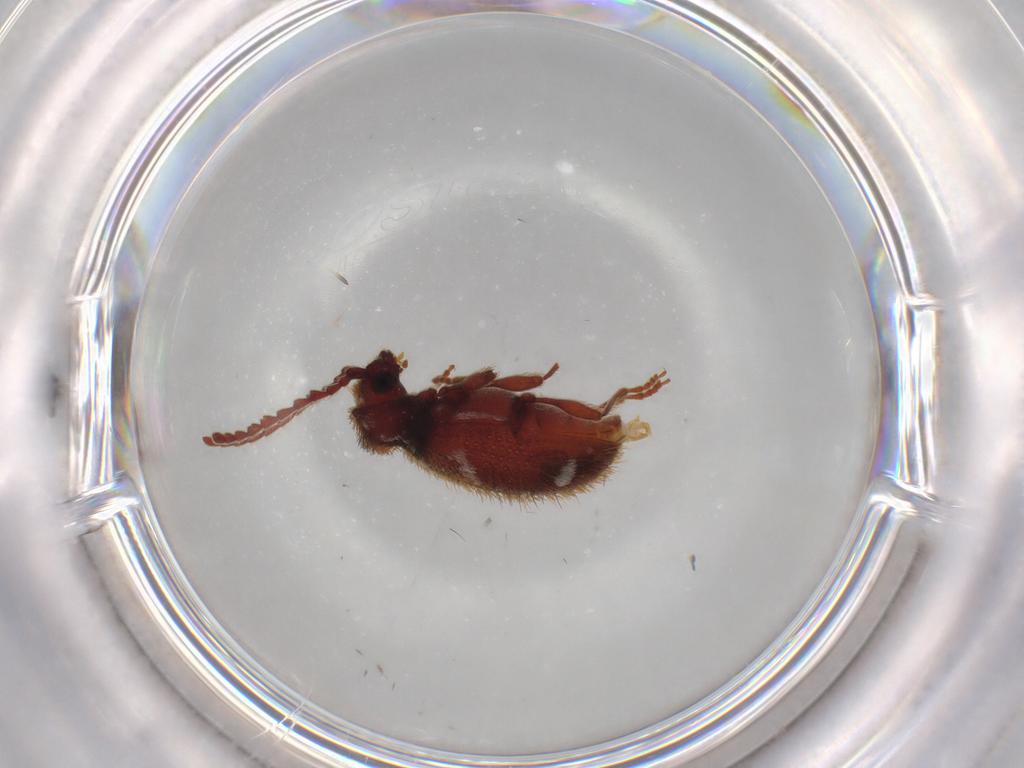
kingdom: Animalia
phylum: Arthropoda
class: Insecta
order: Coleoptera
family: Ptinidae
